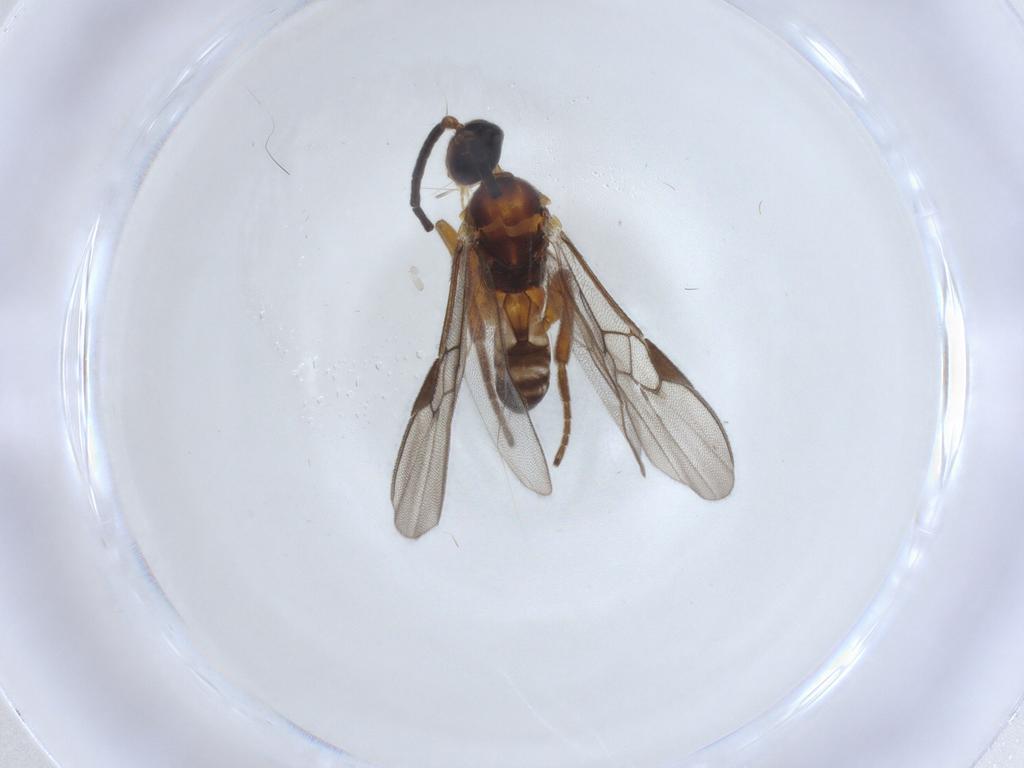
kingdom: Animalia
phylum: Arthropoda
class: Insecta
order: Diptera
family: Psychodidae
